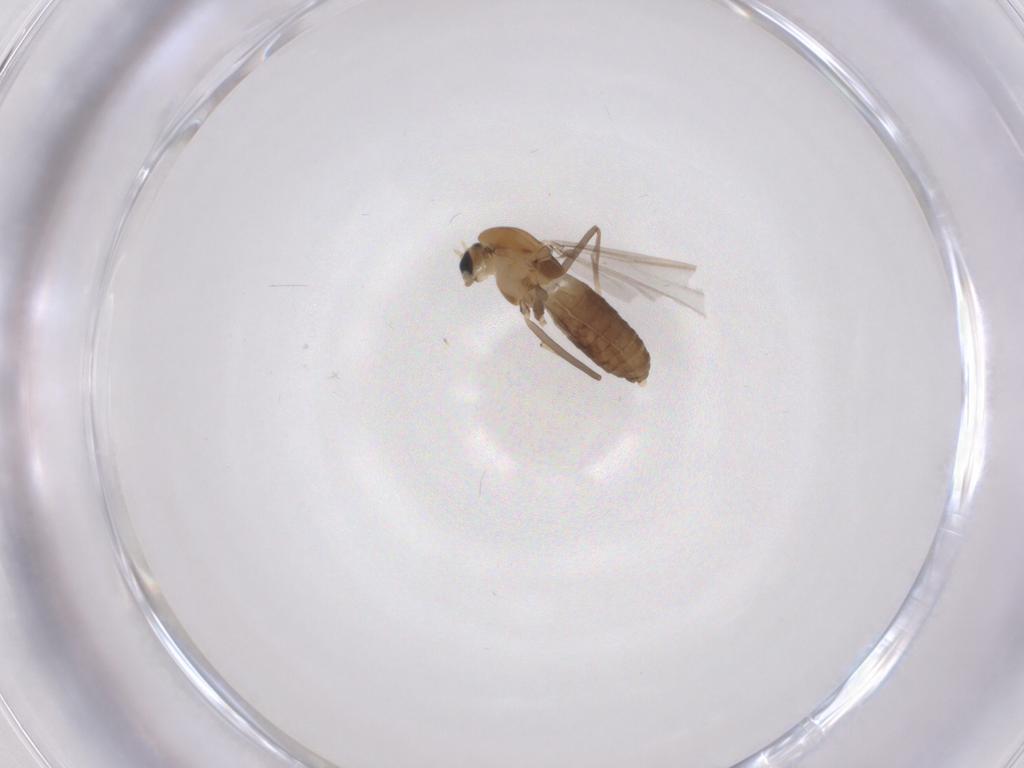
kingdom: Animalia
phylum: Arthropoda
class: Insecta
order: Diptera
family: Chironomidae
